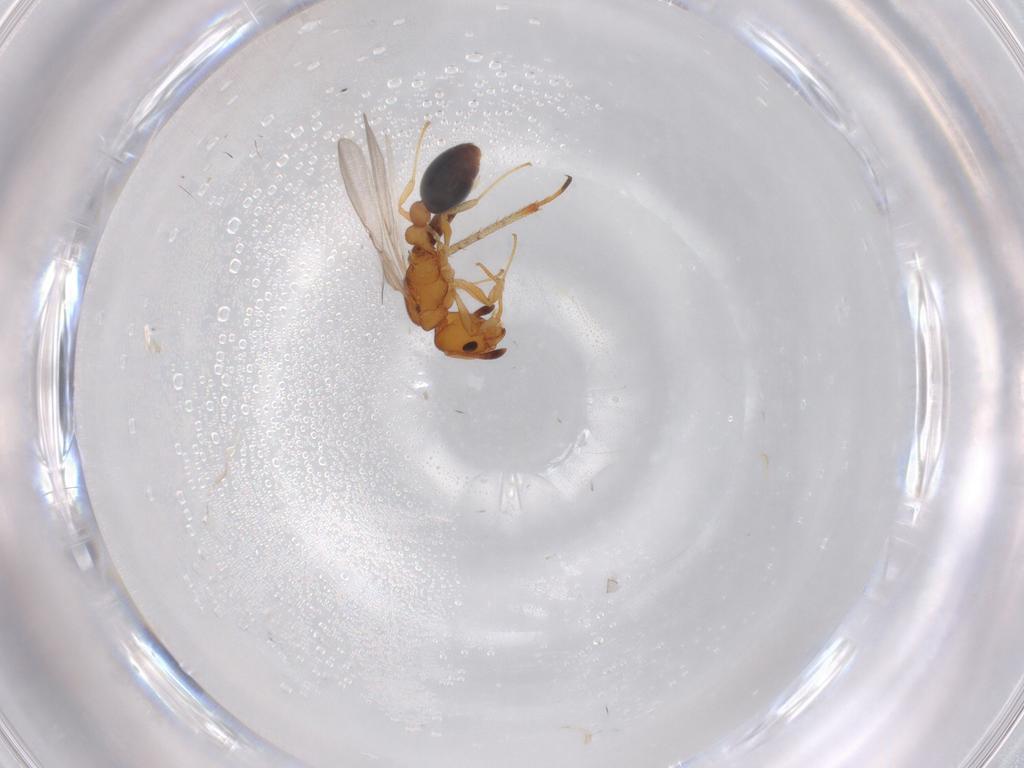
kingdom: Animalia
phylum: Arthropoda
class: Insecta
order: Hymenoptera
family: Formicidae
